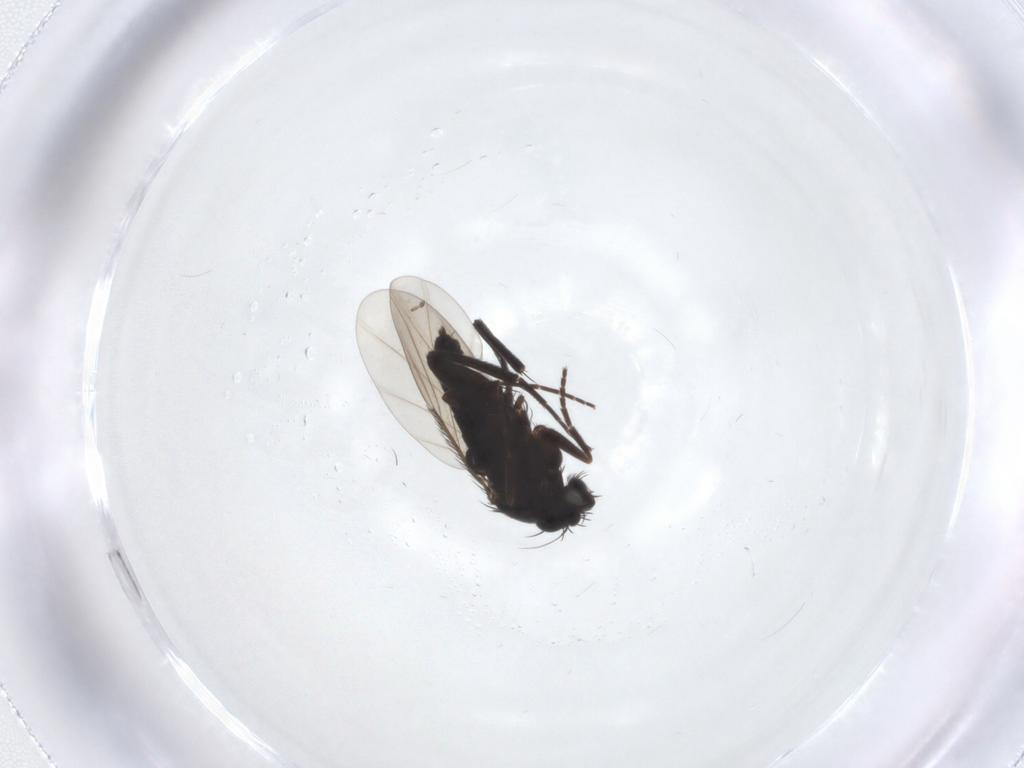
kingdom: Animalia
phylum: Arthropoda
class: Insecta
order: Diptera
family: Phoridae
